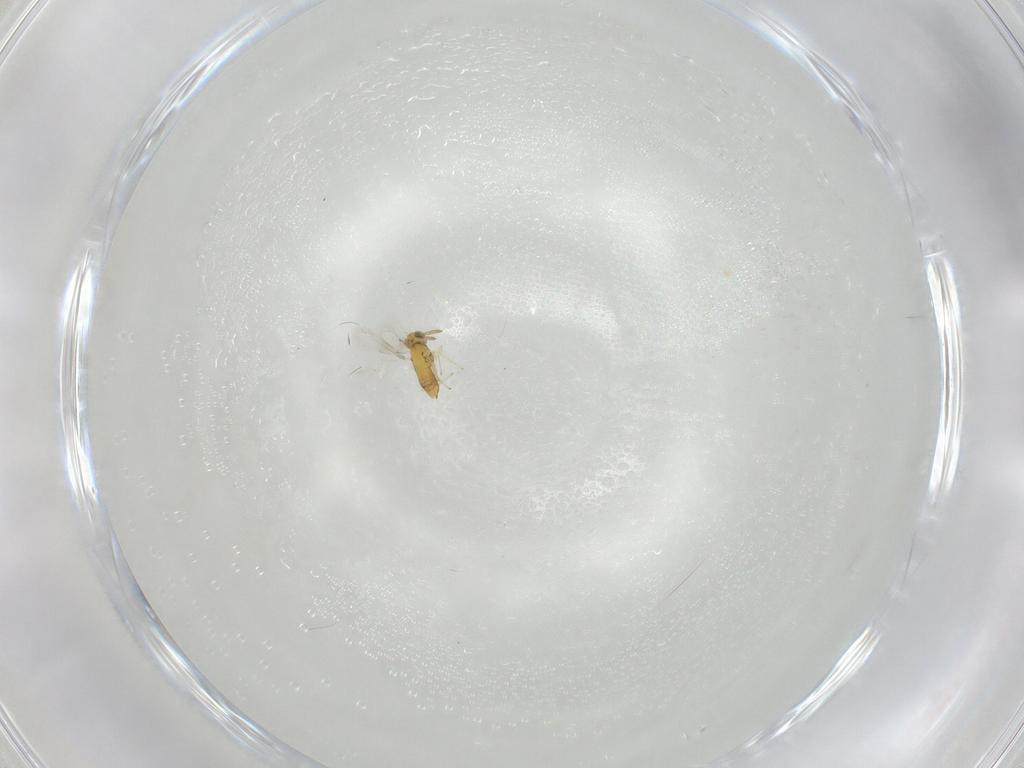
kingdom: Animalia
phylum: Arthropoda
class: Insecta
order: Hymenoptera
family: Aphelinidae
